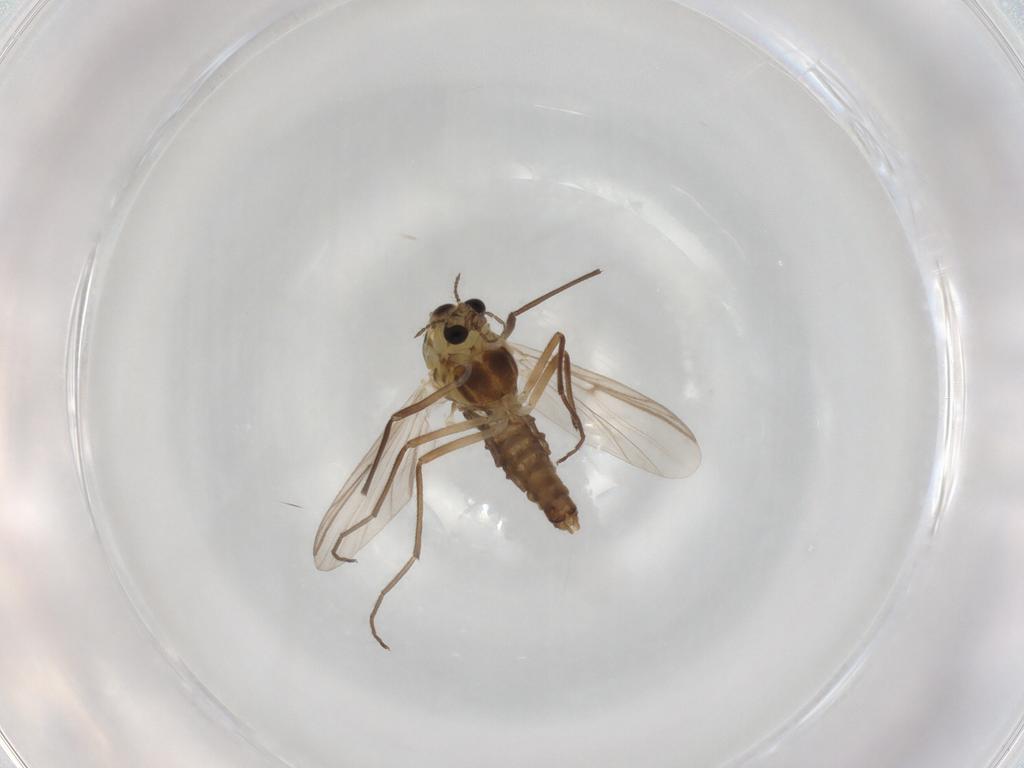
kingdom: Animalia
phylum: Arthropoda
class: Insecta
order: Diptera
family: Chironomidae
